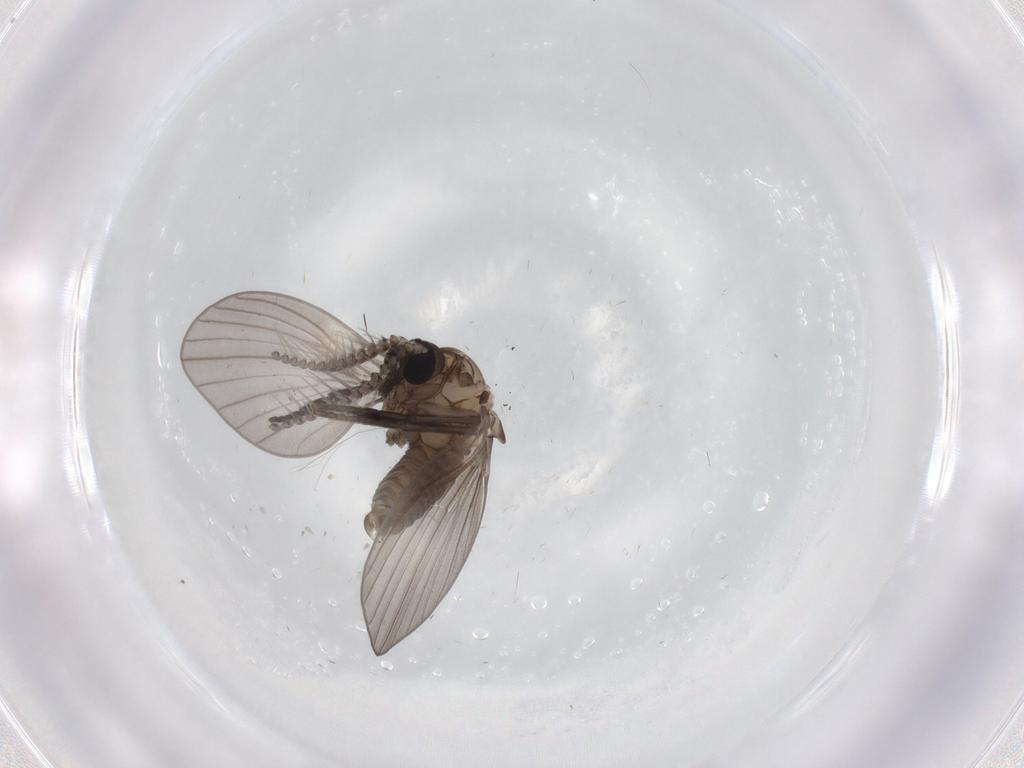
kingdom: Animalia
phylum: Arthropoda
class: Insecta
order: Diptera
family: Sphaeroceridae
